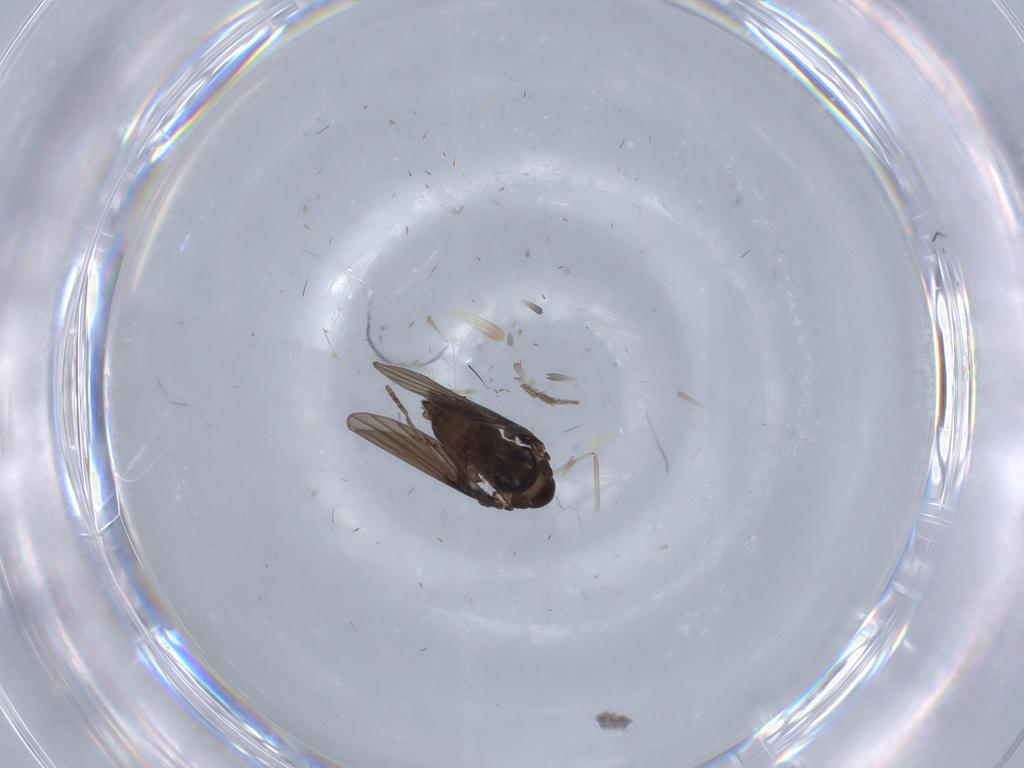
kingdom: Animalia
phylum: Arthropoda
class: Insecta
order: Diptera
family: Psychodidae
